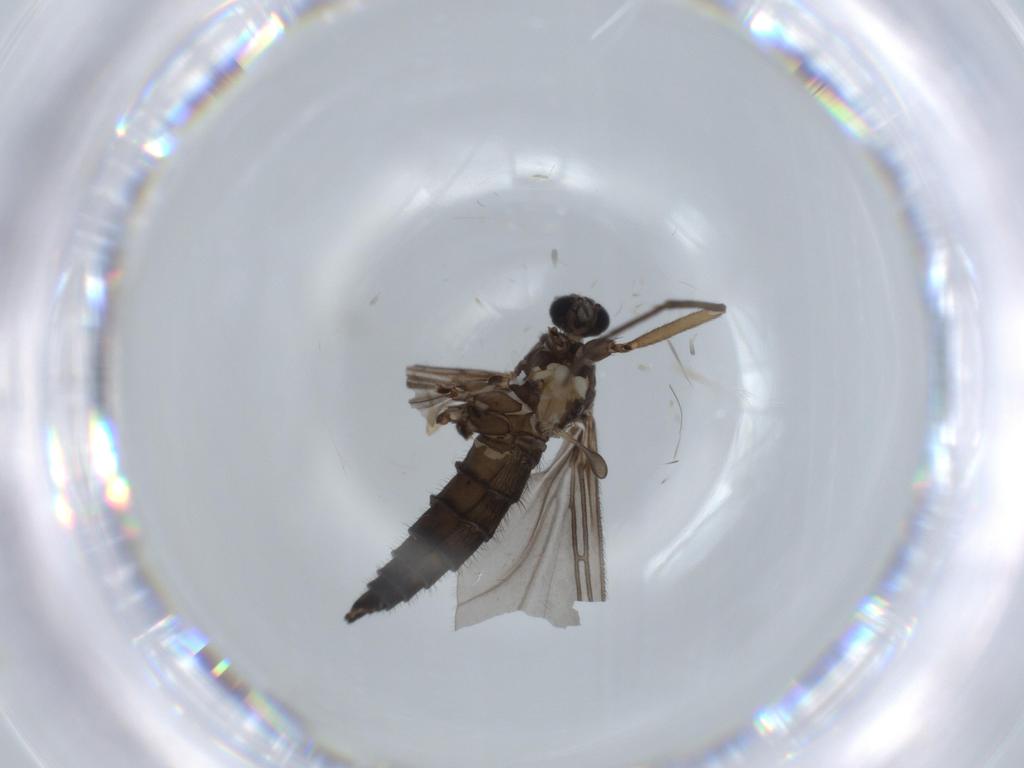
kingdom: Animalia
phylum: Arthropoda
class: Insecta
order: Diptera
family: Sciaridae
